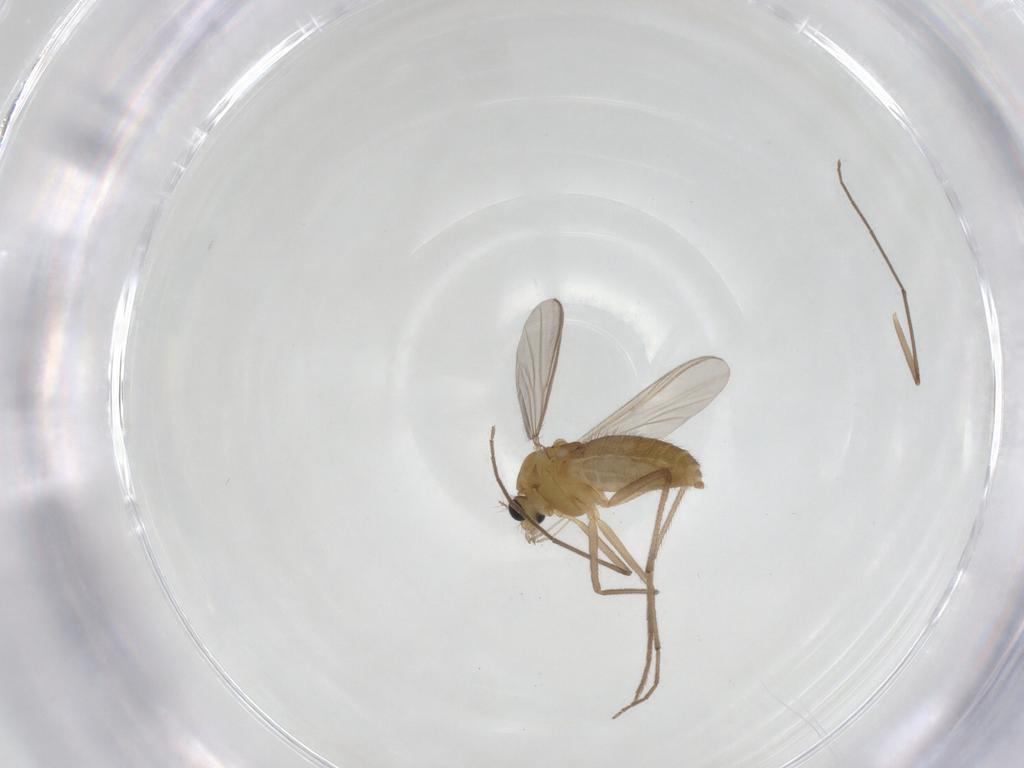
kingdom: Animalia
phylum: Arthropoda
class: Insecta
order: Diptera
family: Chironomidae
